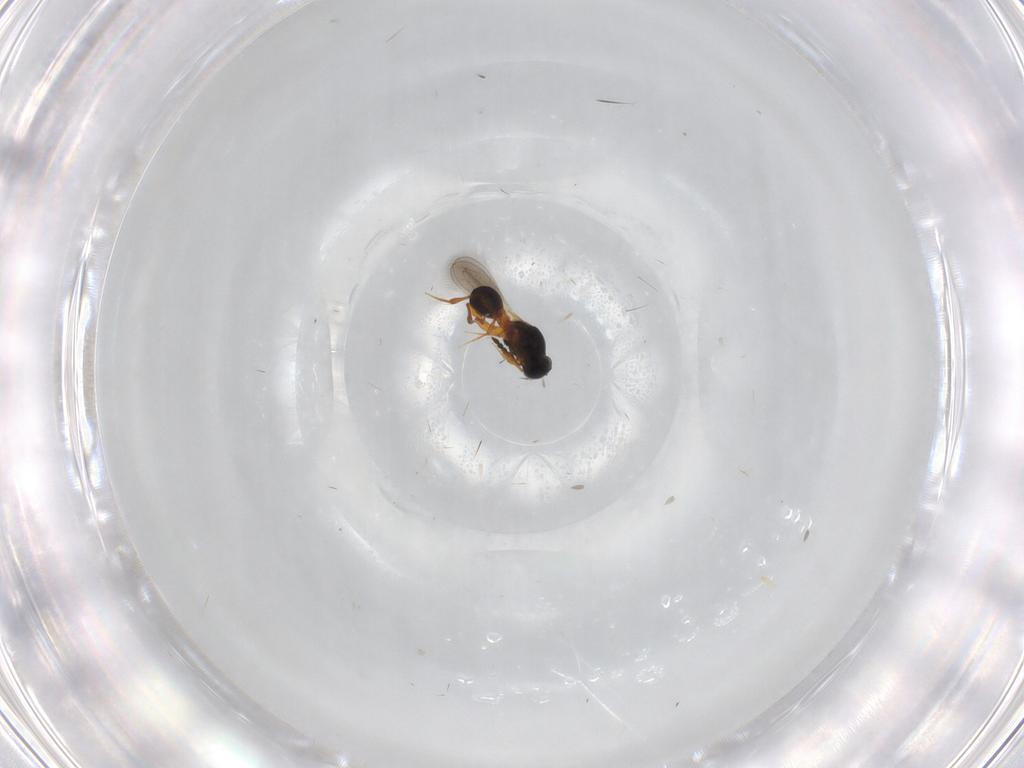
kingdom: Animalia
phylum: Arthropoda
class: Insecta
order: Hymenoptera
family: Platygastridae
